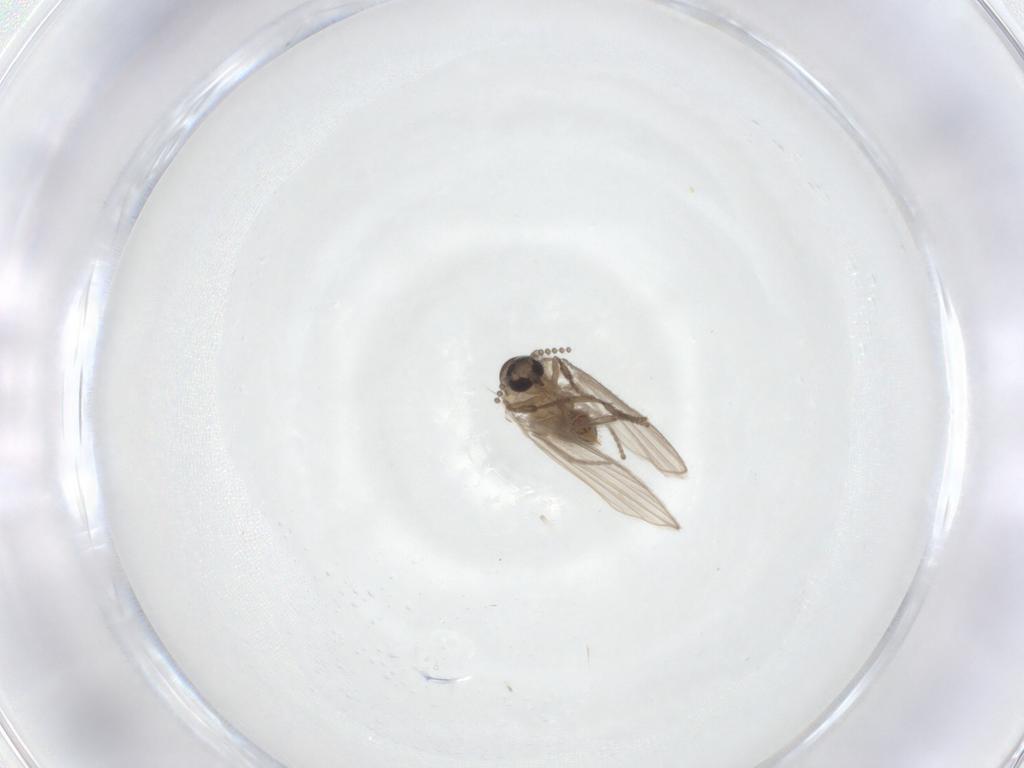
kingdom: Animalia
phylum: Arthropoda
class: Insecta
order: Diptera
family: Psychodidae
